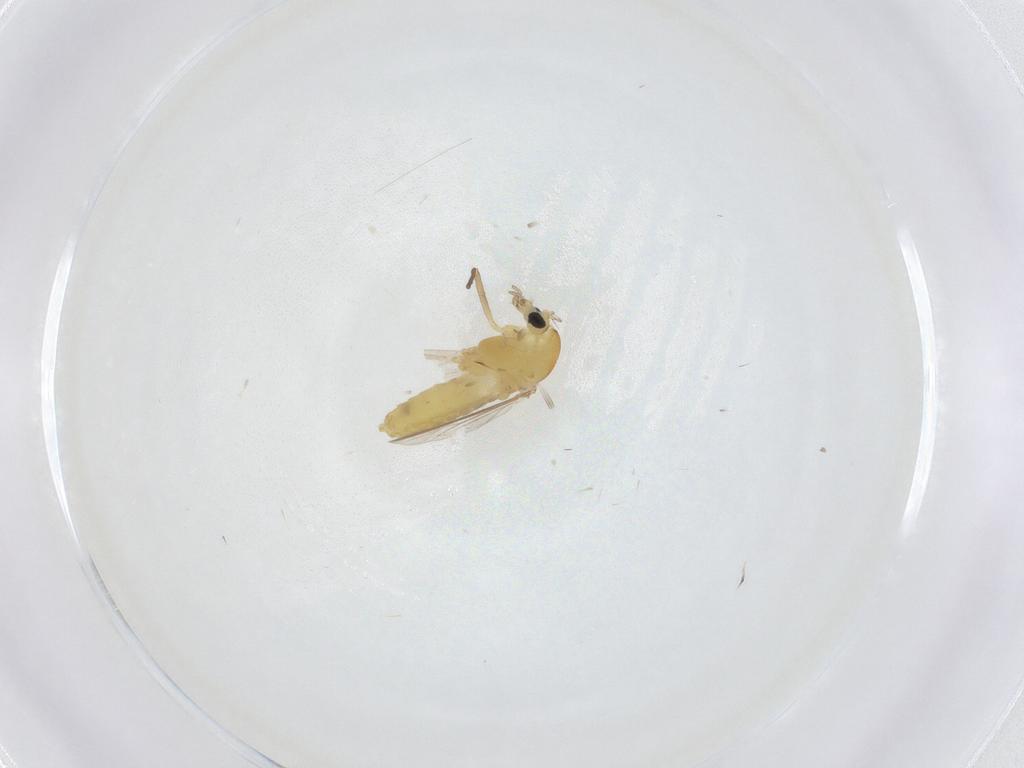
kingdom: Animalia
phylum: Arthropoda
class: Insecta
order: Diptera
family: Chironomidae
